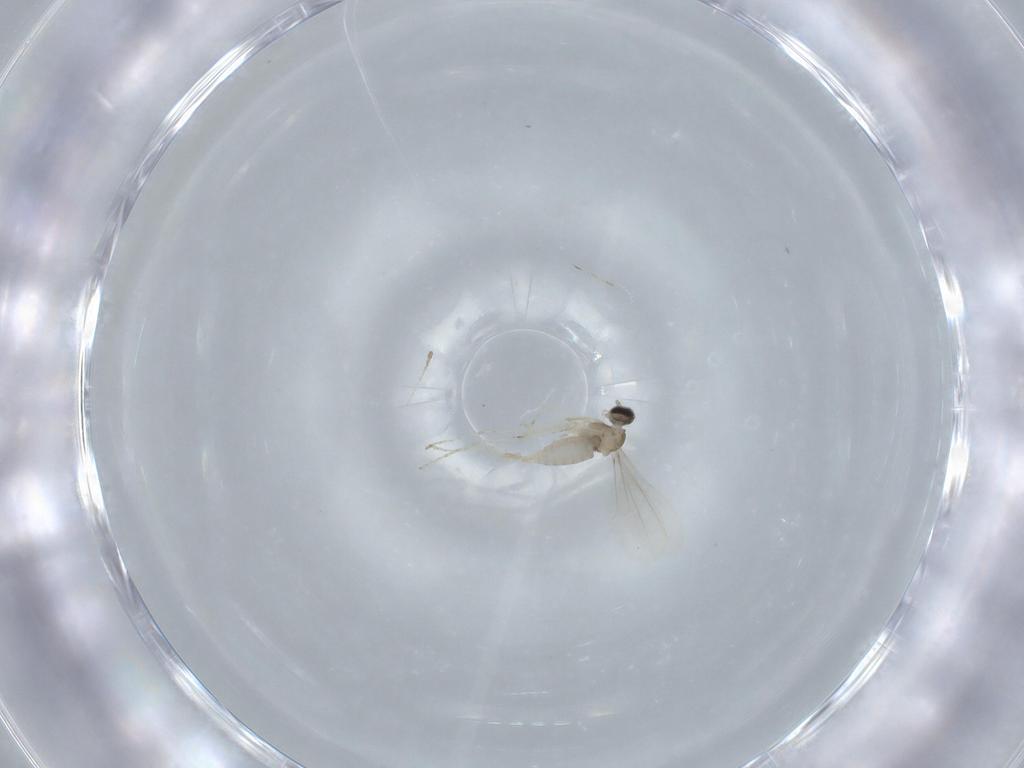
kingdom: Animalia
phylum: Arthropoda
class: Insecta
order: Diptera
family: Cecidomyiidae
